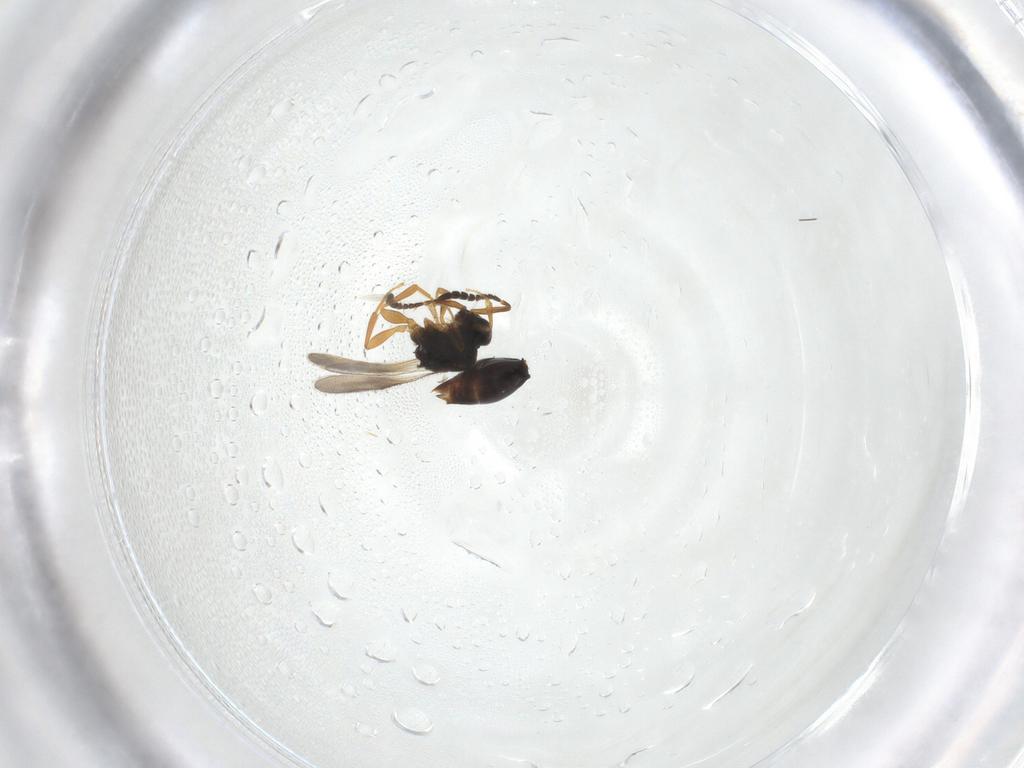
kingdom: Animalia
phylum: Arthropoda
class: Insecta
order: Hymenoptera
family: Ceraphronidae
